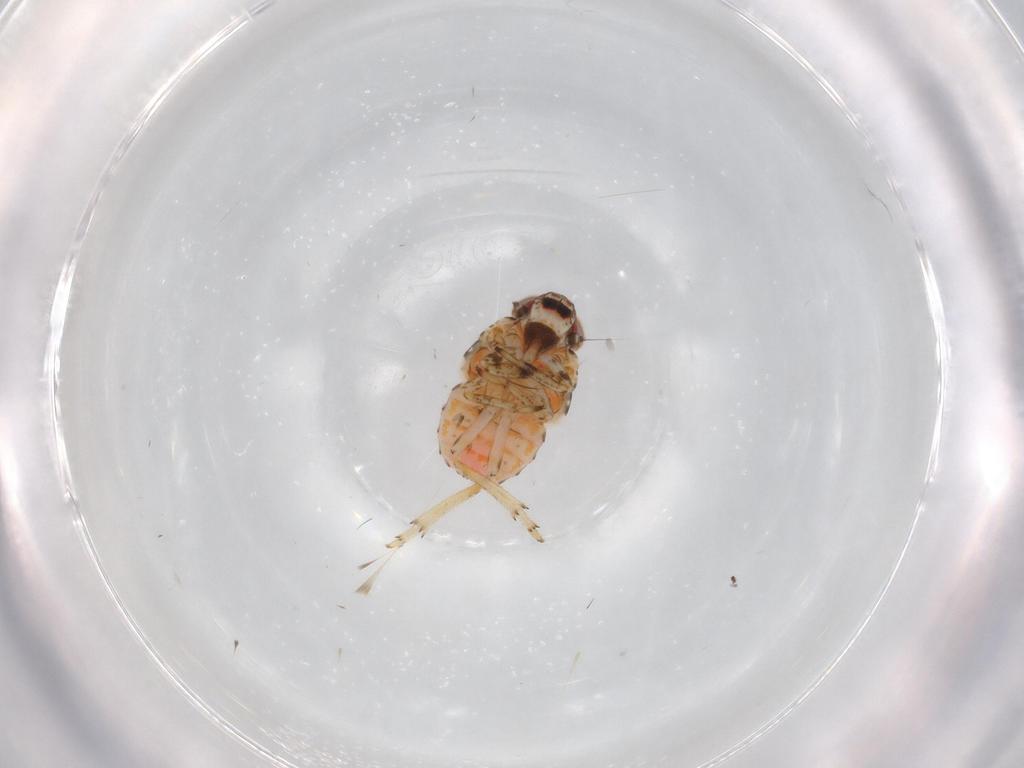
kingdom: Animalia
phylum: Arthropoda
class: Insecta
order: Hemiptera
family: Issidae
